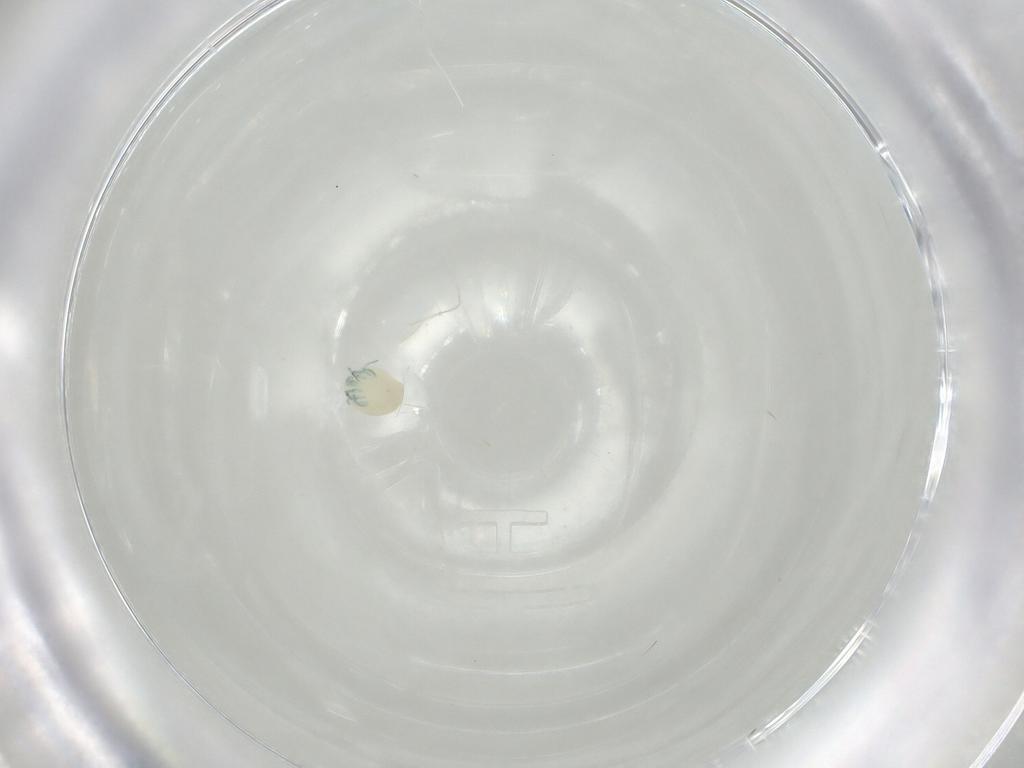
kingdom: Animalia
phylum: Arthropoda
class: Arachnida
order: Trombidiformes
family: Arrenuridae
